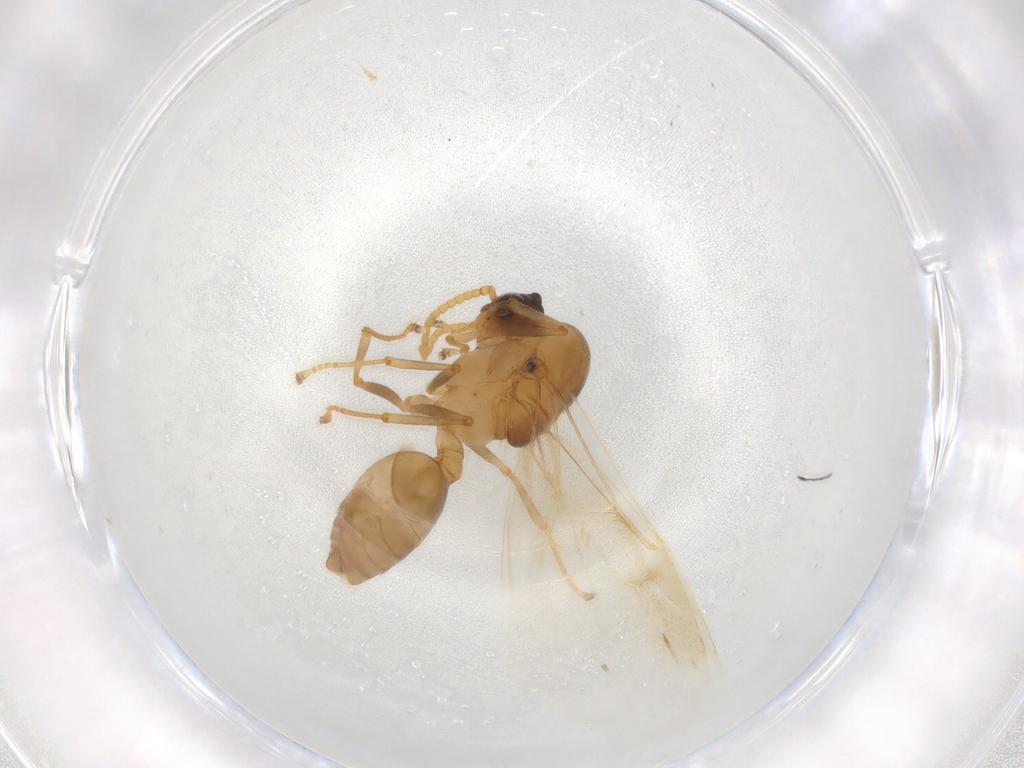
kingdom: Animalia
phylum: Arthropoda
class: Insecta
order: Hymenoptera
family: Formicidae
